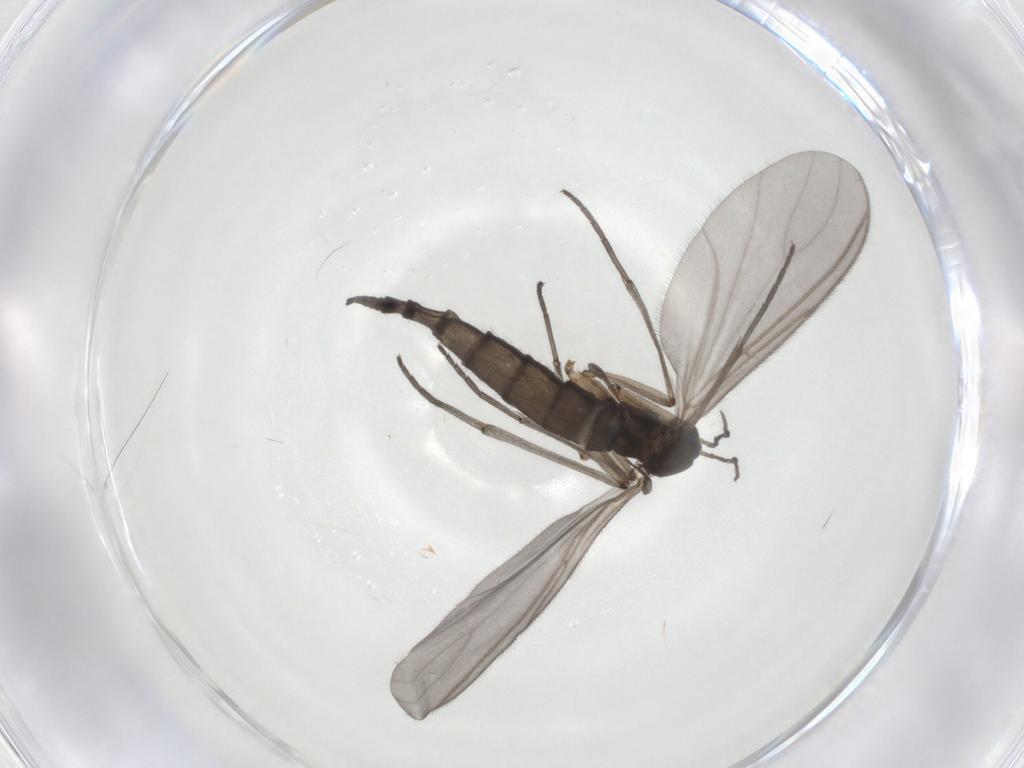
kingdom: Animalia
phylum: Arthropoda
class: Insecta
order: Diptera
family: Sciaridae
